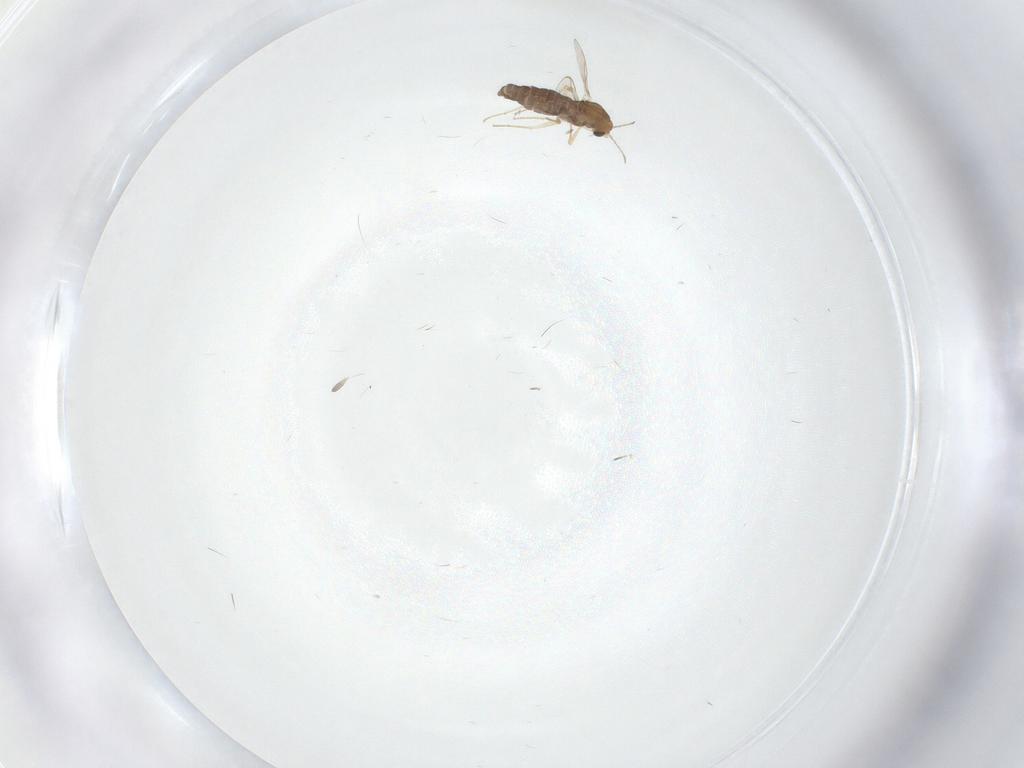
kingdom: Animalia
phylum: Arthropoda
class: Insecta
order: Diptera
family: Chironomidae
